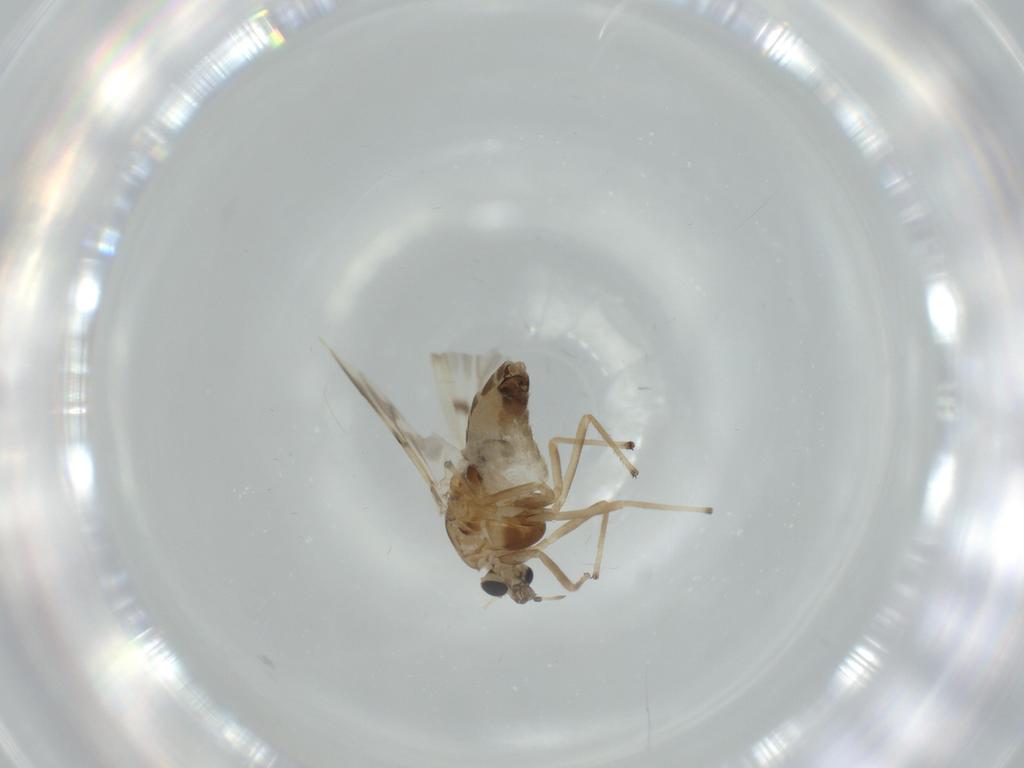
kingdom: Animalia
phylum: Arthropoda
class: Insecta
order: Diptera
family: Chironomidae
